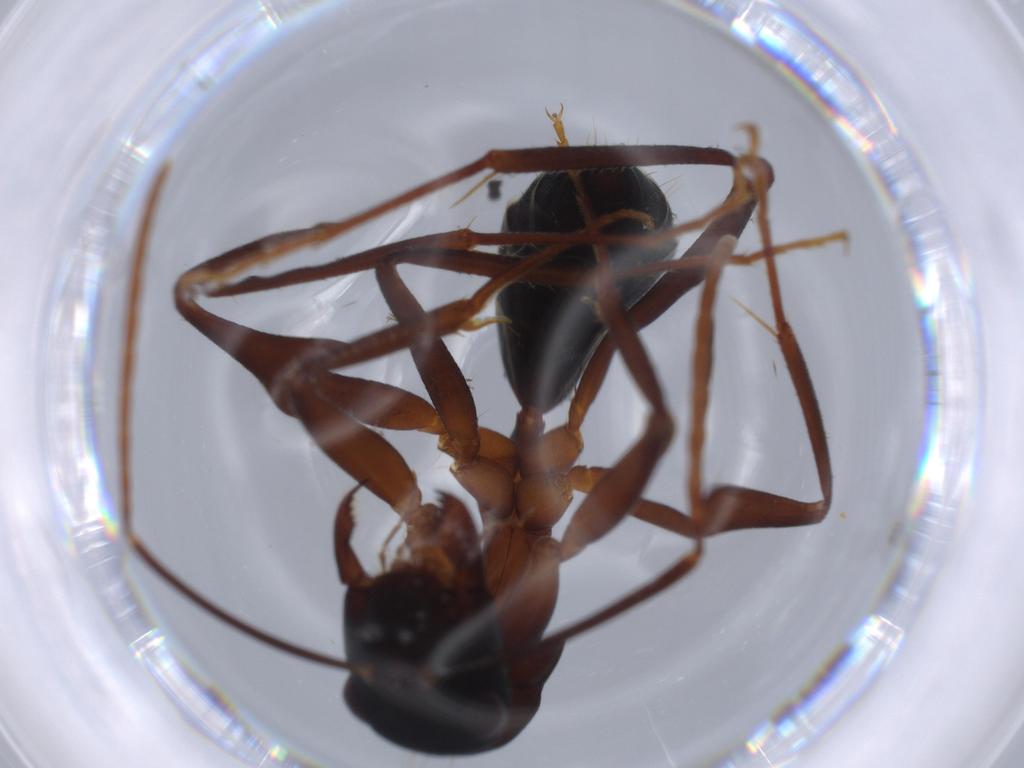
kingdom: Animalia
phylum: Arthropoda
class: Insecta
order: Hymenoptera
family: Formicidae
